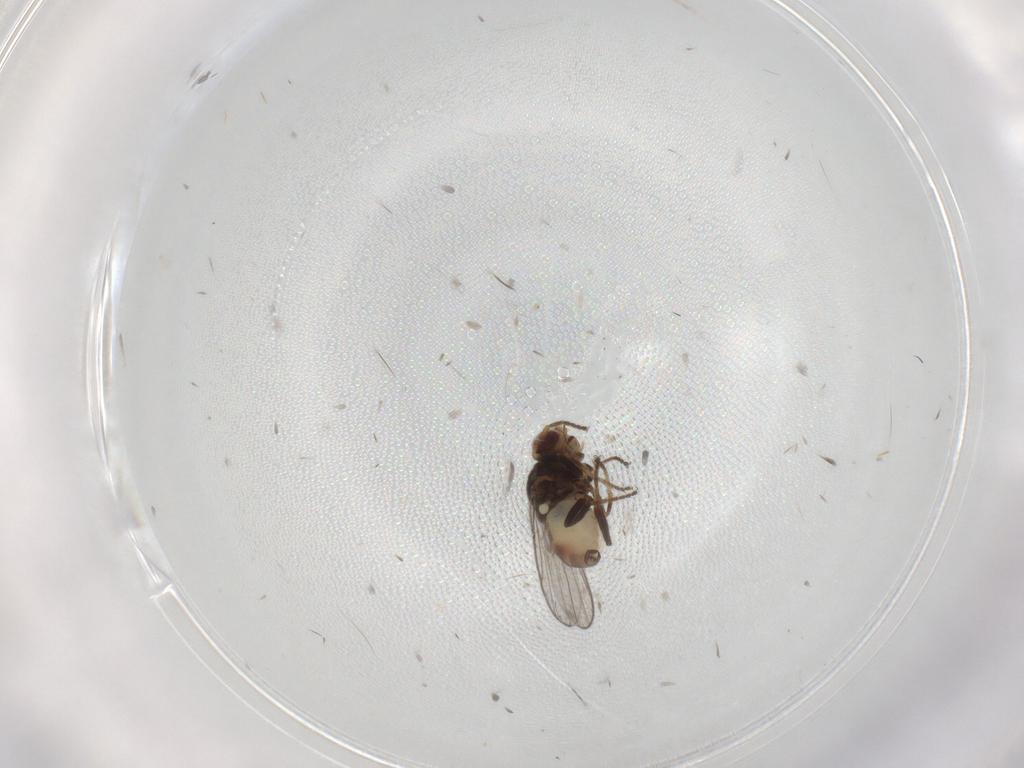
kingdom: Animalia
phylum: Arthropoda
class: Insecta
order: Diptera
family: Chloropidae
